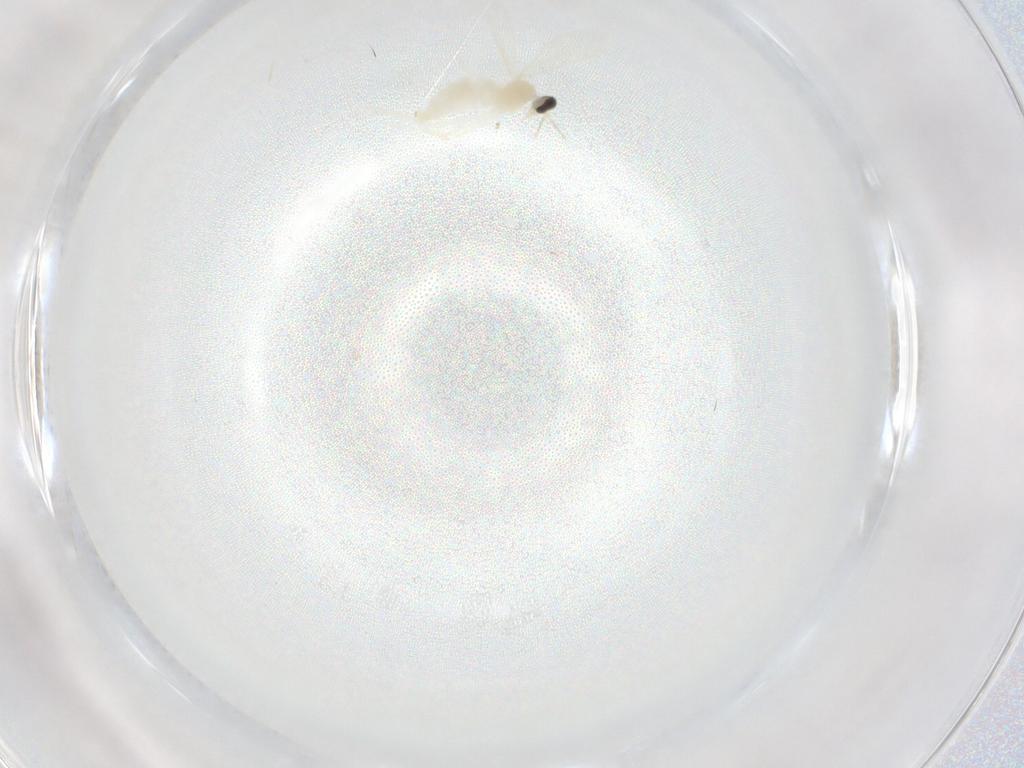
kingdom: Animalia
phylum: Arthropoda
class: Insecta
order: Diptera
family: Cecidomyiidae
